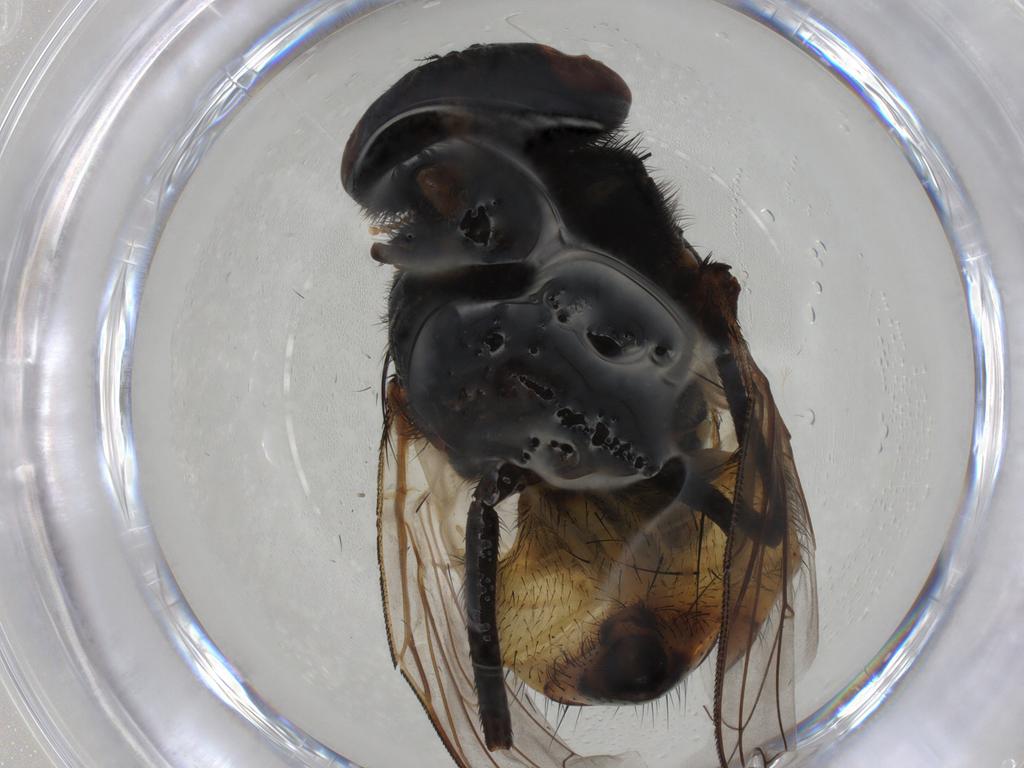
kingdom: Animalia
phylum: Arthropoda
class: Insecta
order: Diptera
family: Muscidae
